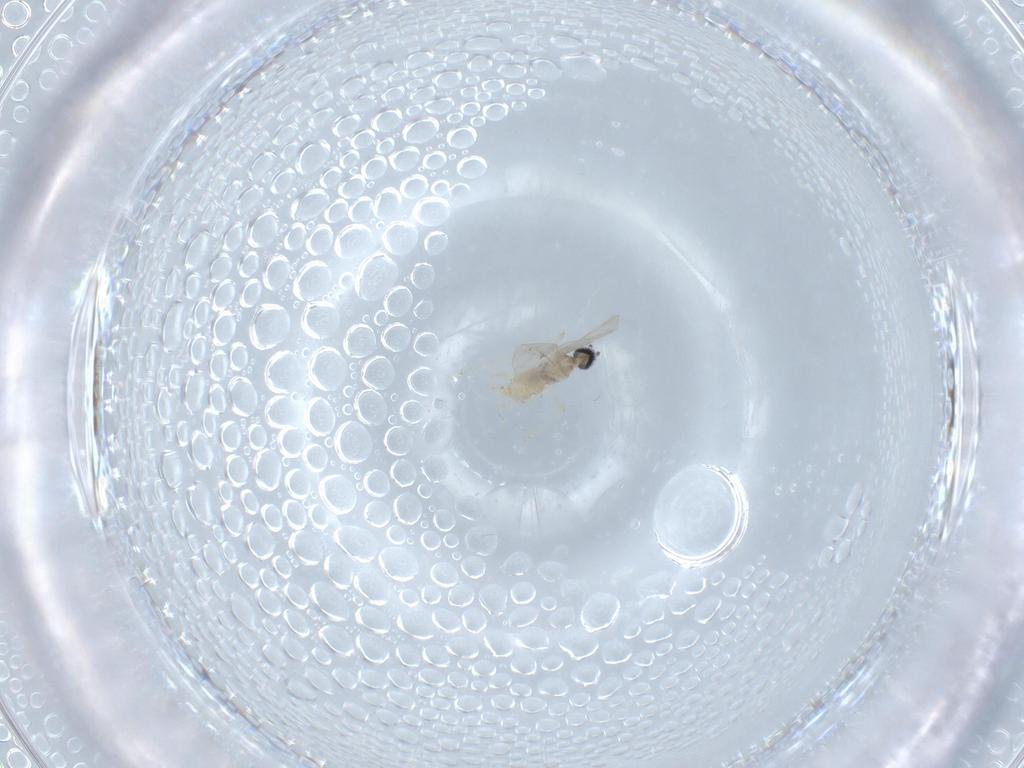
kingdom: Animalia
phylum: Arthropoda
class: Insecta
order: Diptera
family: Cecidomyiidae
